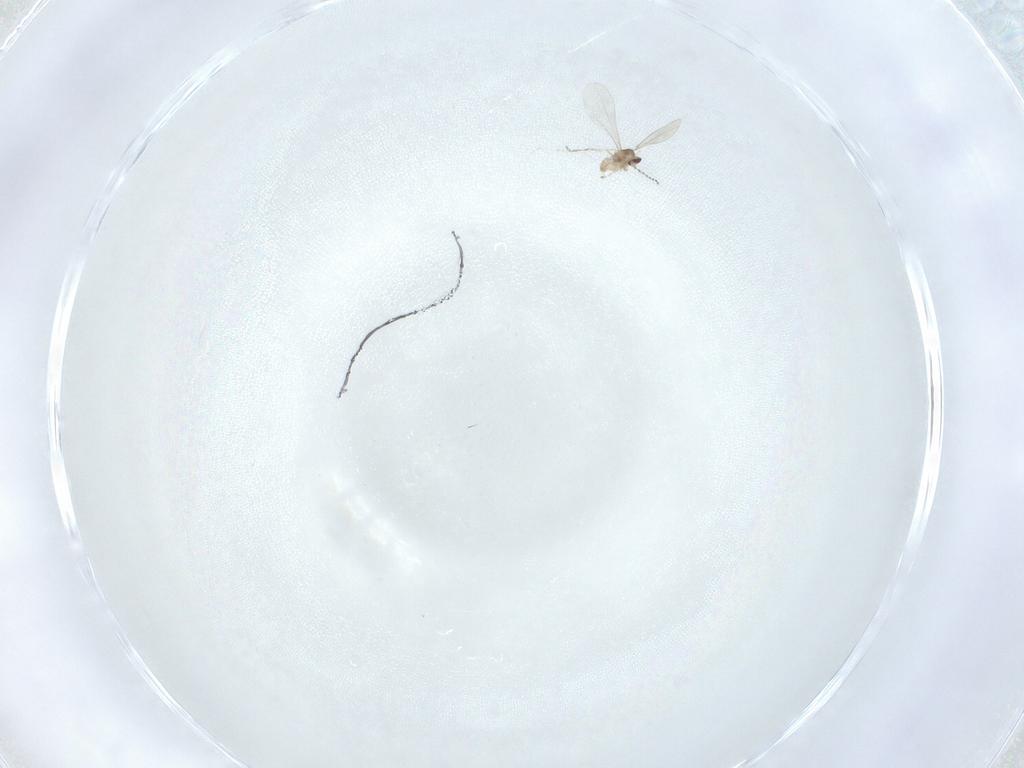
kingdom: Animalia
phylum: Arthropoda
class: Insecta
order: Diptera
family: Cecidomyiidae
